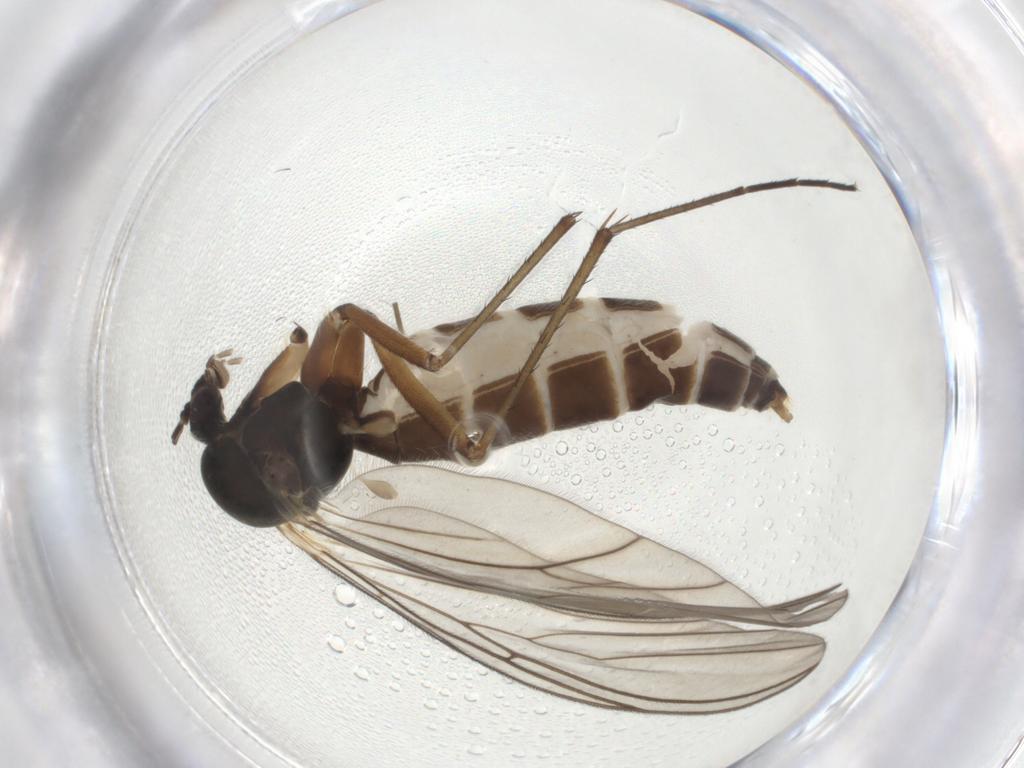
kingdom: Animalia
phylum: Arthropoda
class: Insecta
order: Diptera
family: Mycetophilidae
